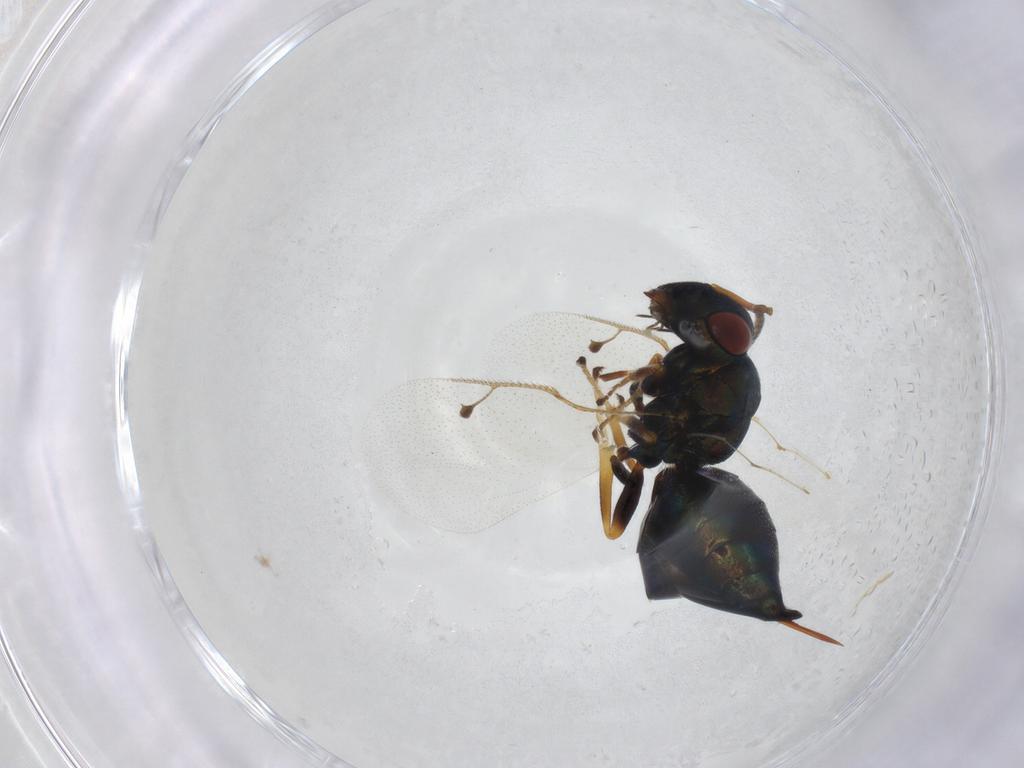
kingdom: Animalia
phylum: Arthropoda
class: Insecta
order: Hymenoptera
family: Pteromalidae
